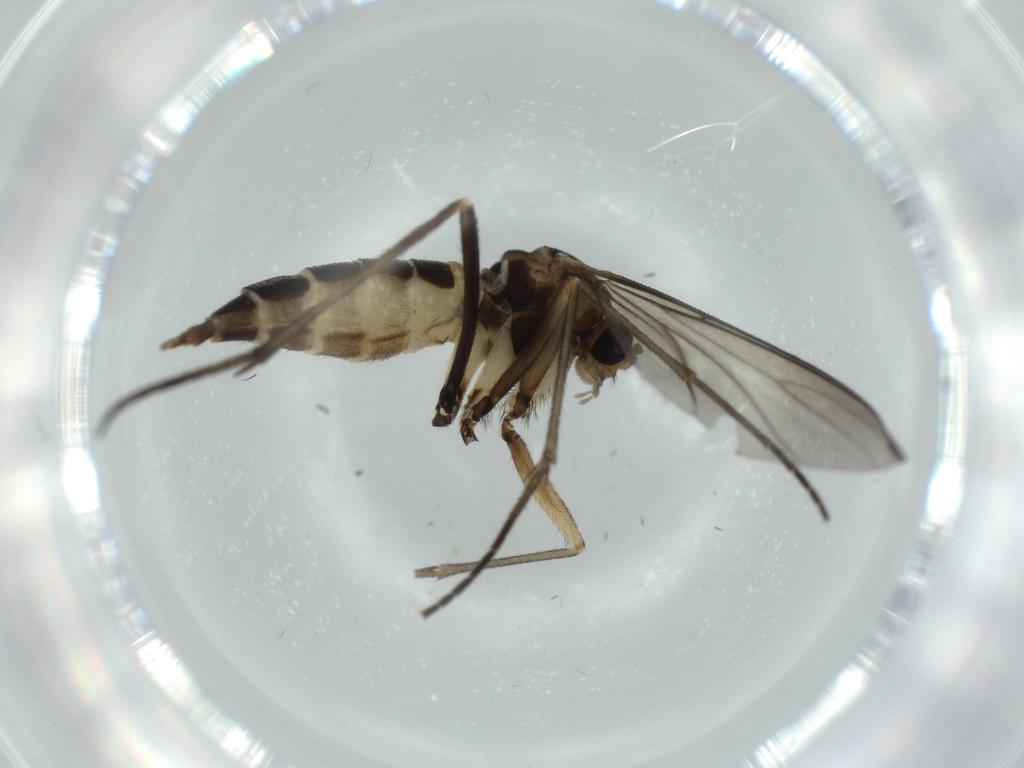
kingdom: Animalia
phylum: Arthropoda
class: Insecta
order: Diptera
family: Sciaridae
